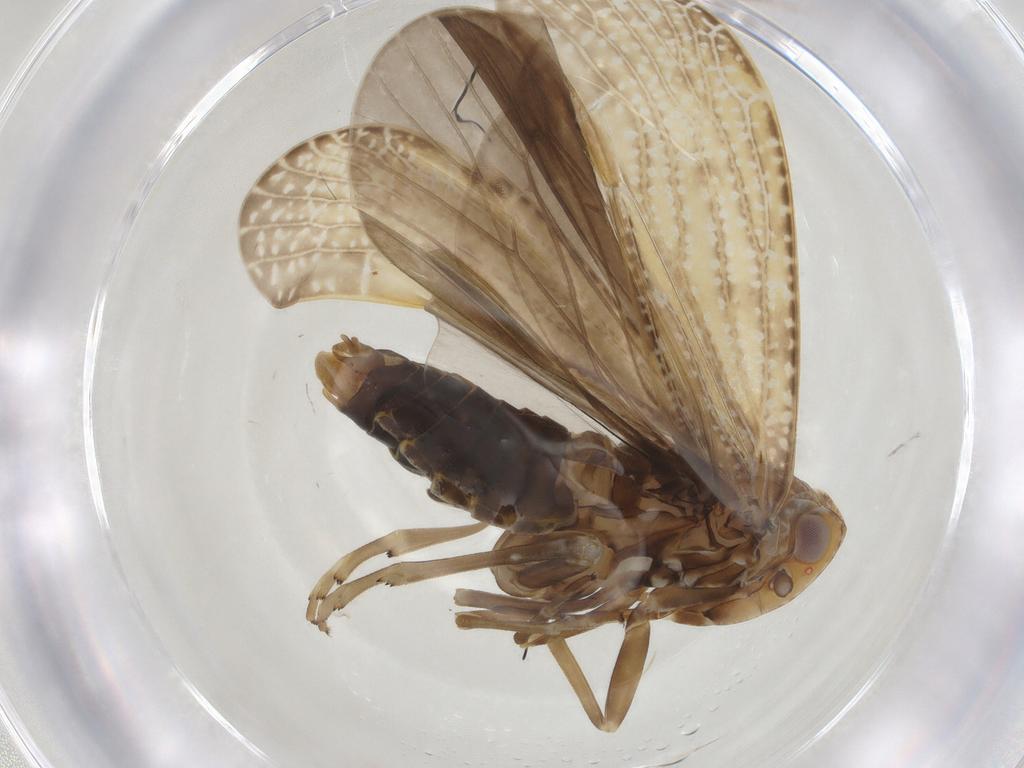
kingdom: Animalia
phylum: Arthropoda
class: Insecta
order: Hemiptera
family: Achilidae
